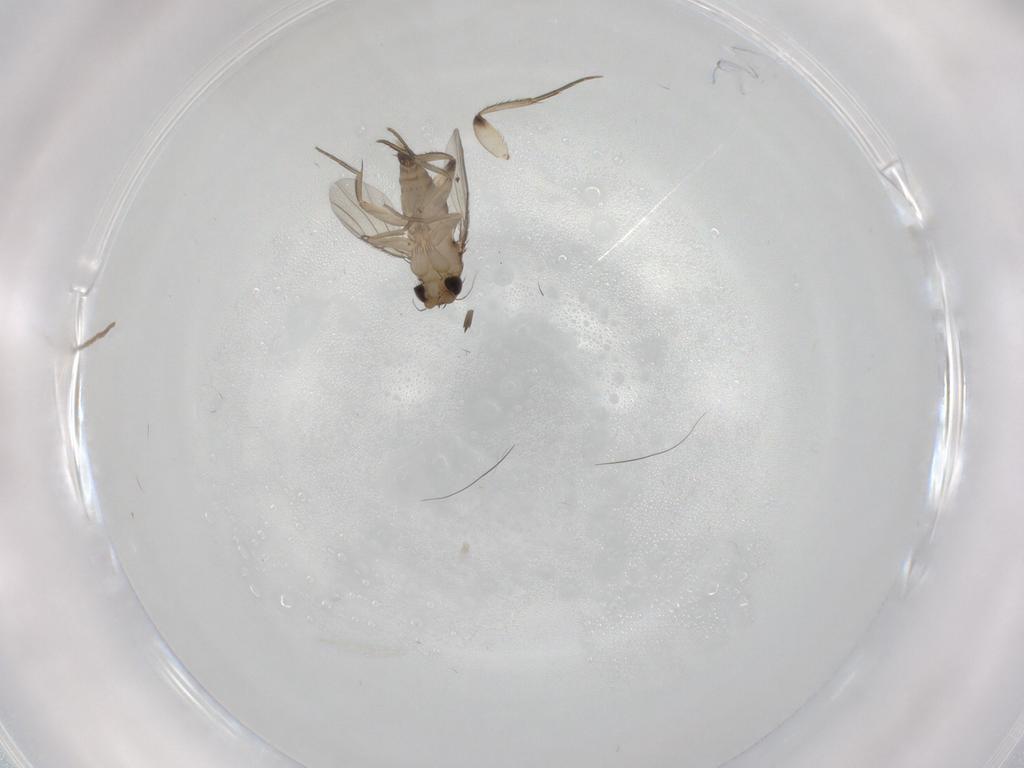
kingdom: Animalia
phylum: Arthropoda
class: Insecta
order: Diptera
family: Chironomidae
